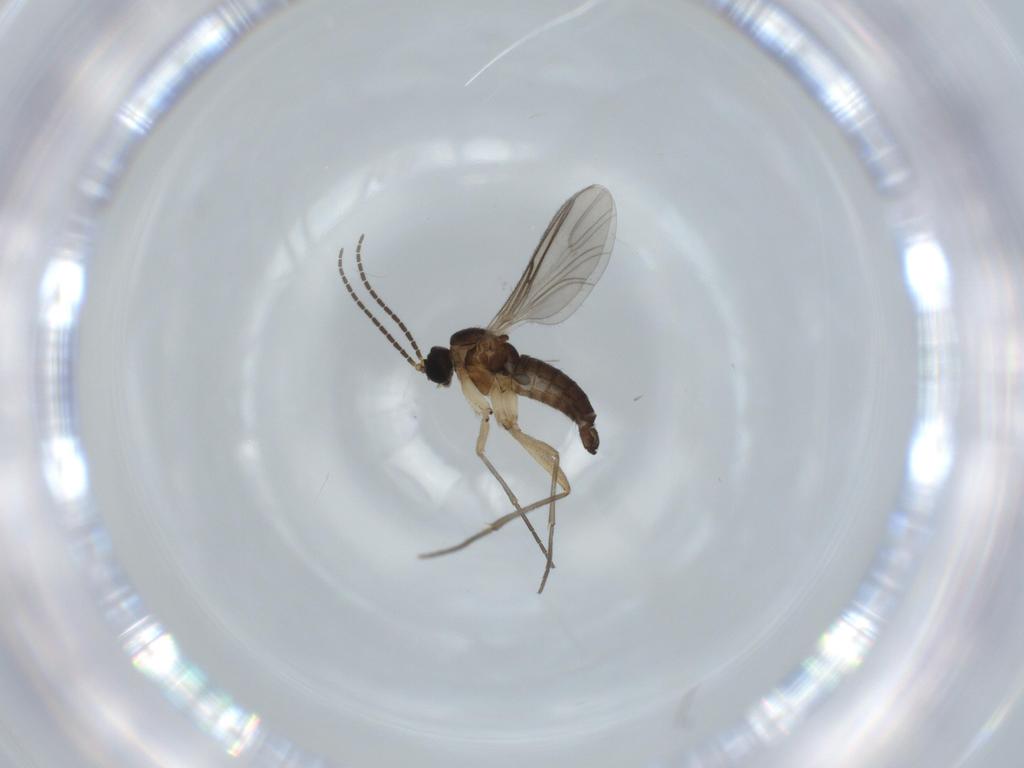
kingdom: Animalia
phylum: Arthropoda
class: Insecta
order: Diptera
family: Sciaridae
